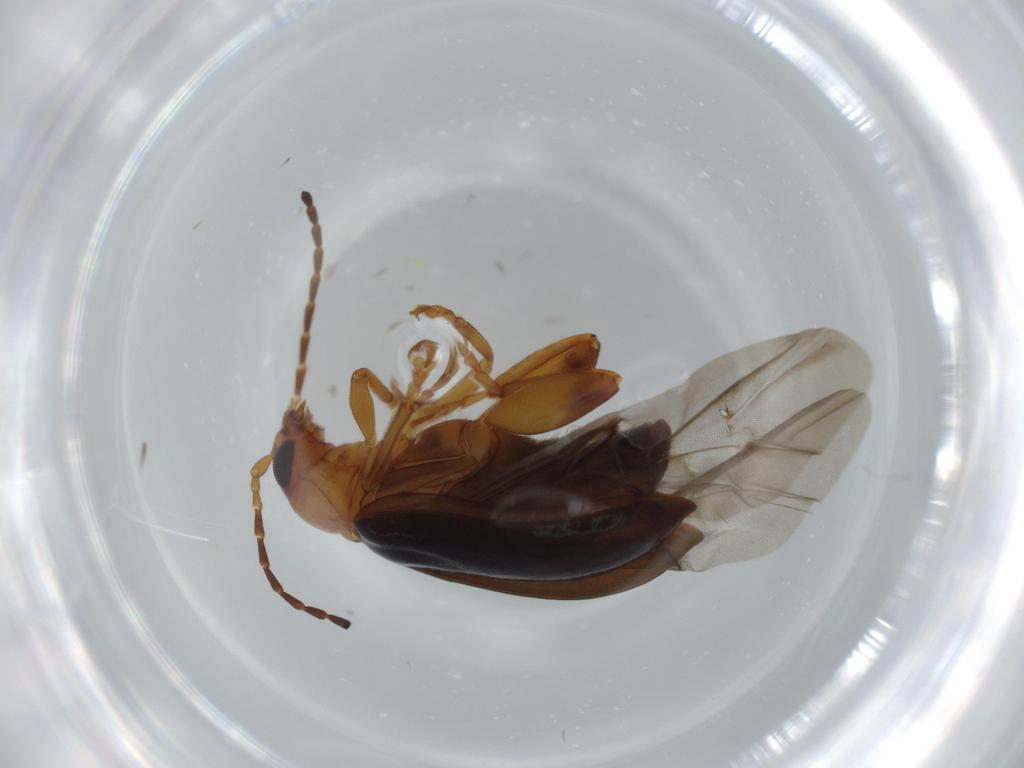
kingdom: Animalia
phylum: Arthropoda
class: Insecta
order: Coleoptera
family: Chrysomelidae
